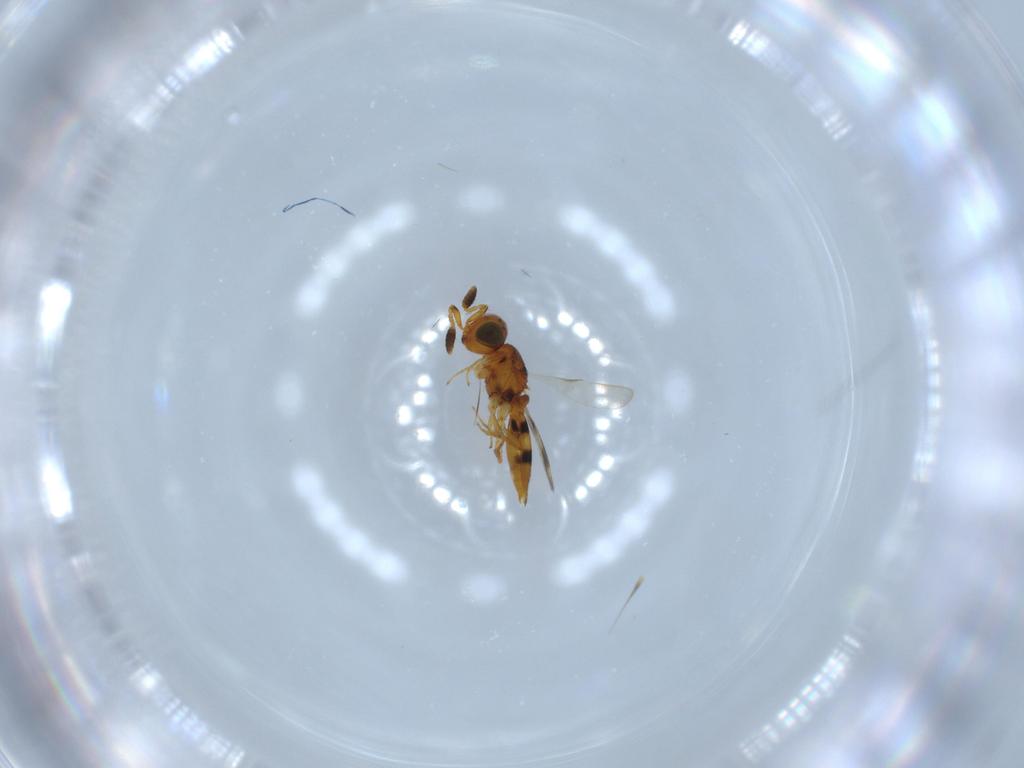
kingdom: Animalia
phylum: Arthropoda
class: Insecta
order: Hymenoptera
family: Scelionidae
